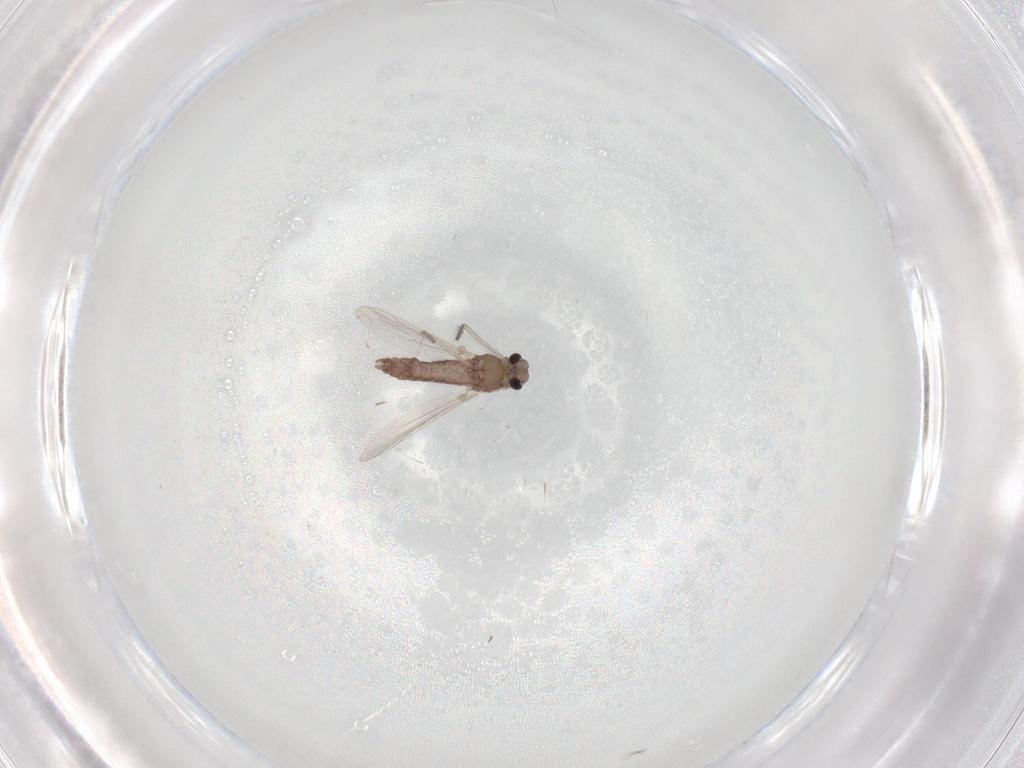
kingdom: Animalia
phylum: Arthropoda
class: Insecta
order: Diptera
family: Chironomidae
